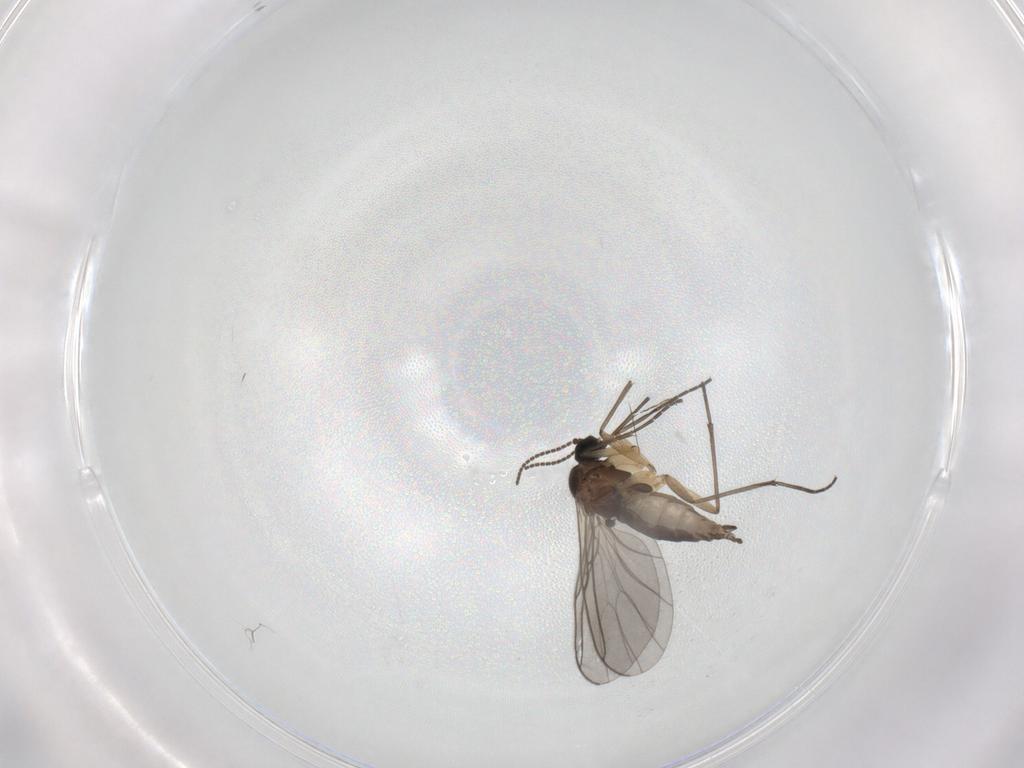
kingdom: Animalia
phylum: Arthropoda
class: Insecta
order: Diptera
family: Sciaridae
